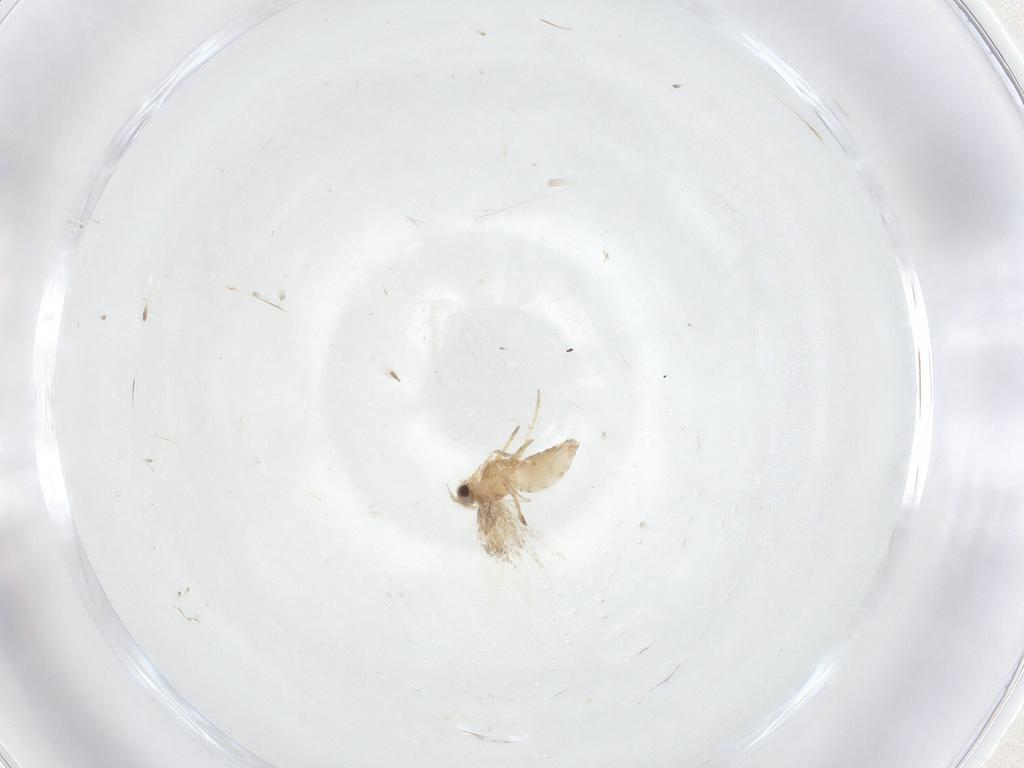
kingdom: Animalia
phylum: Arthropoda
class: Insecta
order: Lepidoptera
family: Nepticulidae
